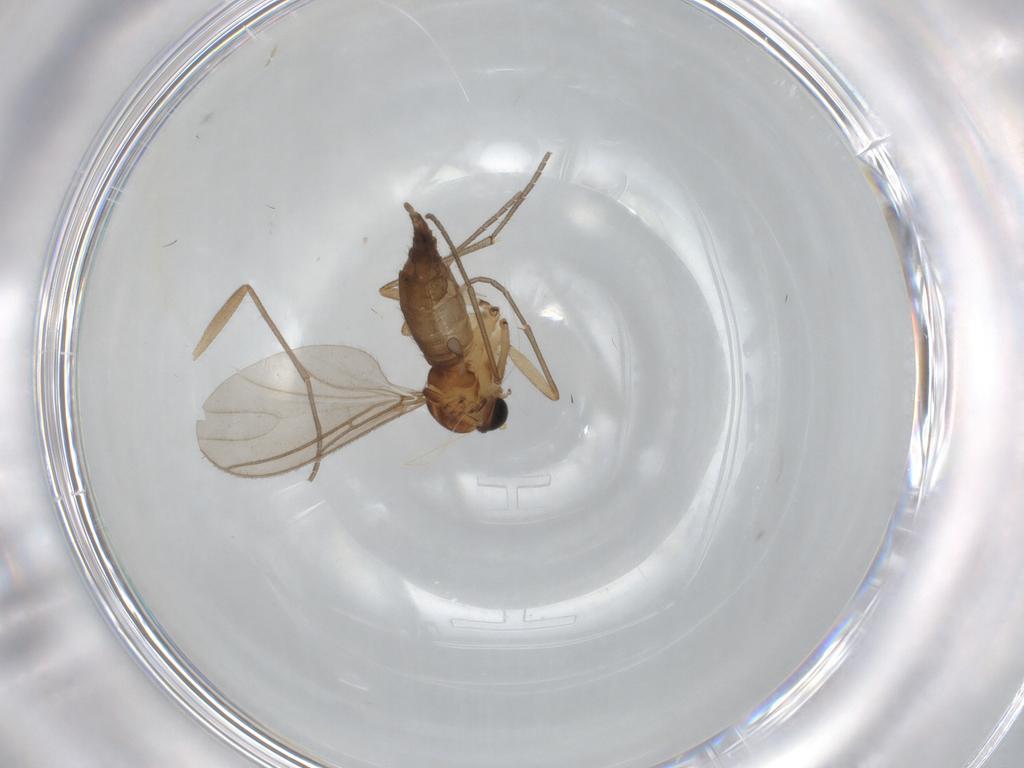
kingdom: Animalia
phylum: Arthropoda
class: Insecta
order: Diptera
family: Sciaridae
